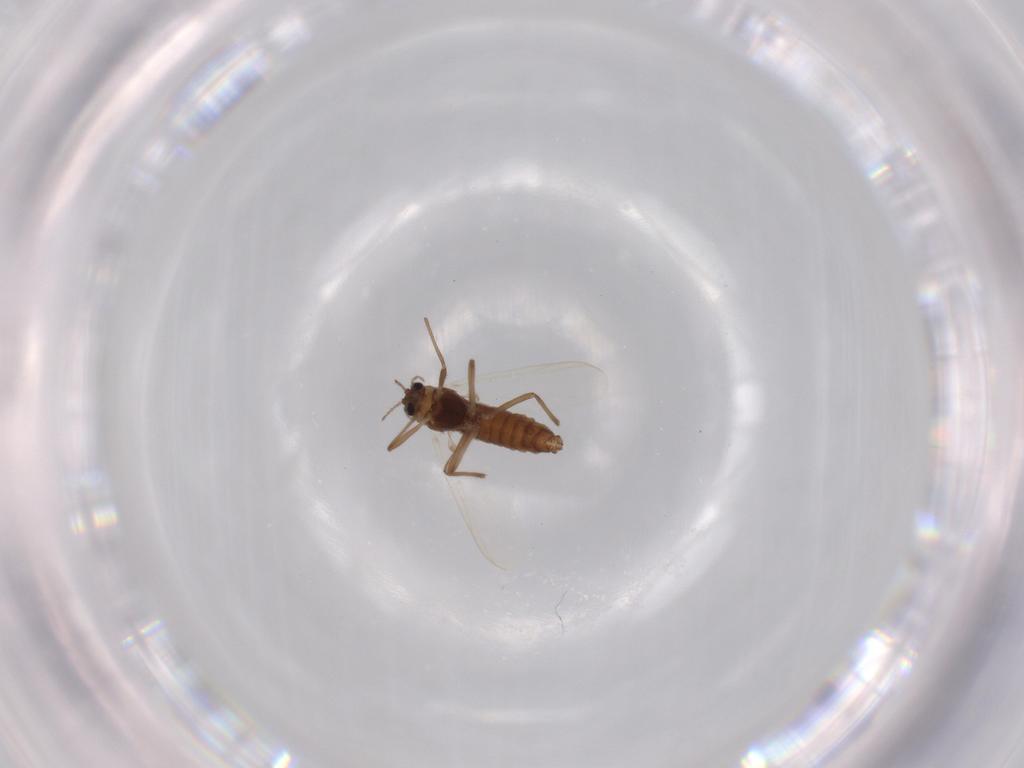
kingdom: Animalia
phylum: Arthropoda
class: Insecta
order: Diptera
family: Chironomidae
